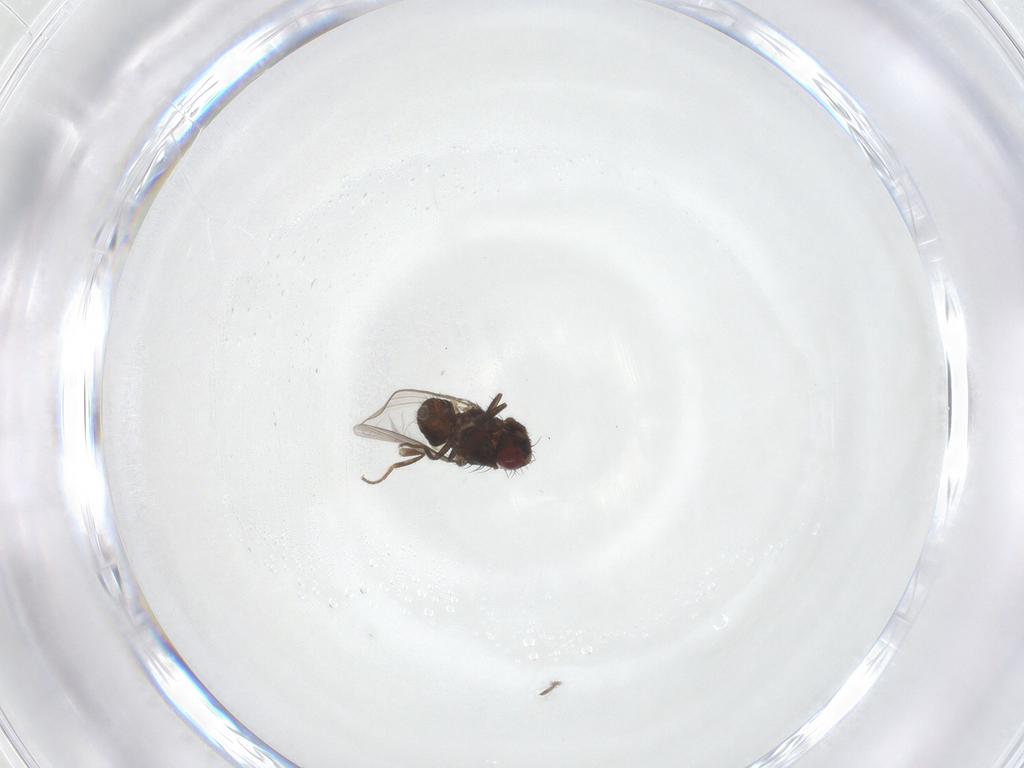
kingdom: Animalia
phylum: Arthropoda
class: Insecta
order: Diptera
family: Carnidae
